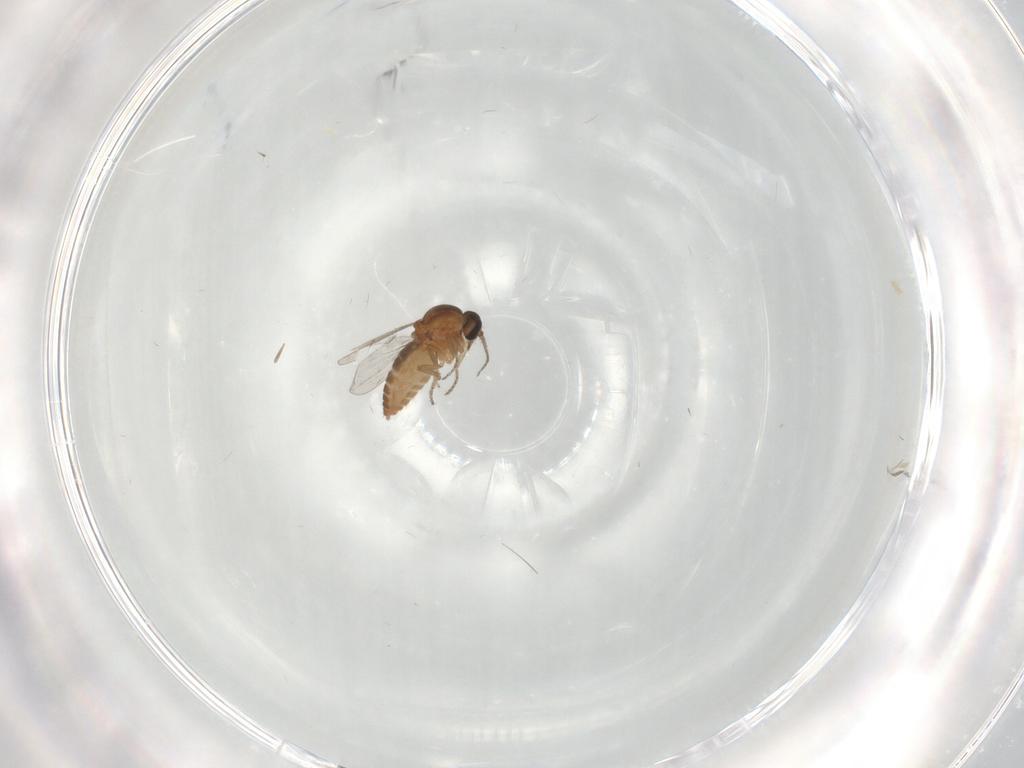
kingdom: Animalia
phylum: Arthropoda
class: Insecta
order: Diptera
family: Ceratopogonidae
